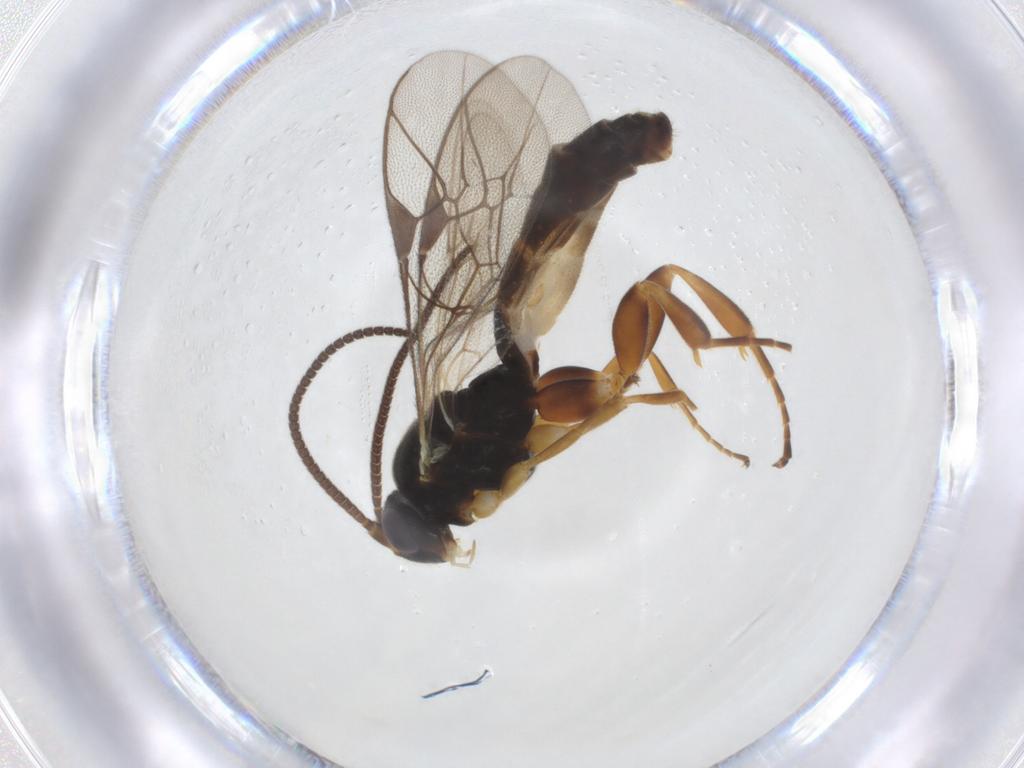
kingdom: Animalia
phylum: Arthropoda
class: Insecta
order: Hymenoptera
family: Ichneumonidae
